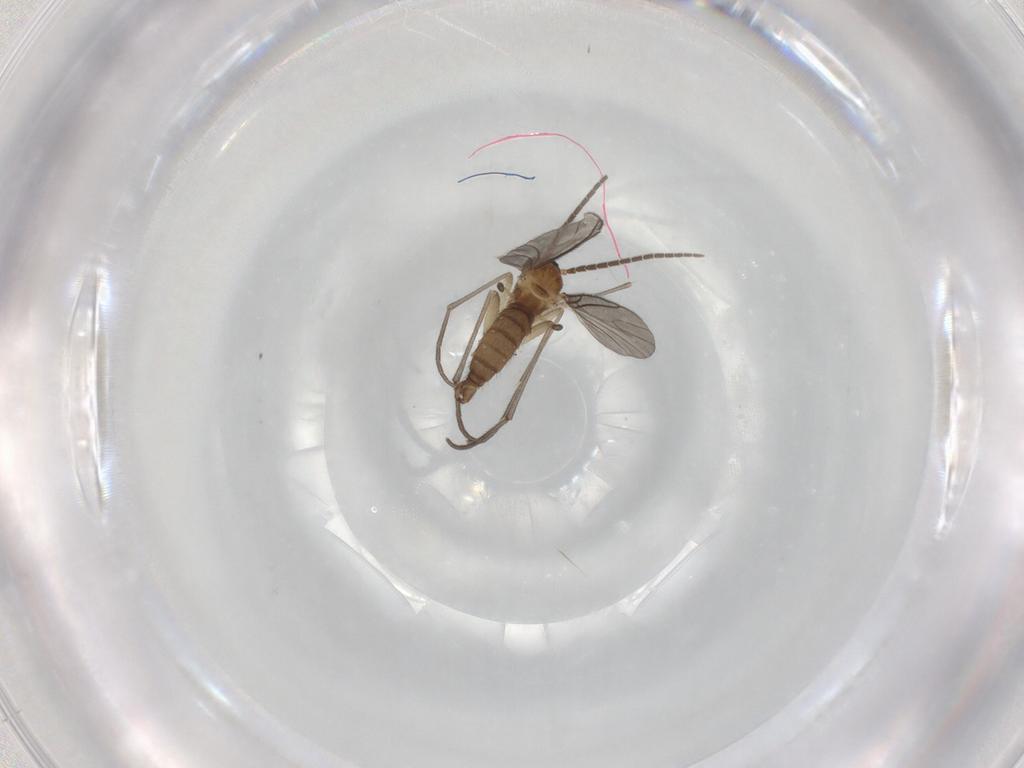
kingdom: Animalia
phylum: Arthropoda
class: Insecta
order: Diptera
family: Sciaridae
